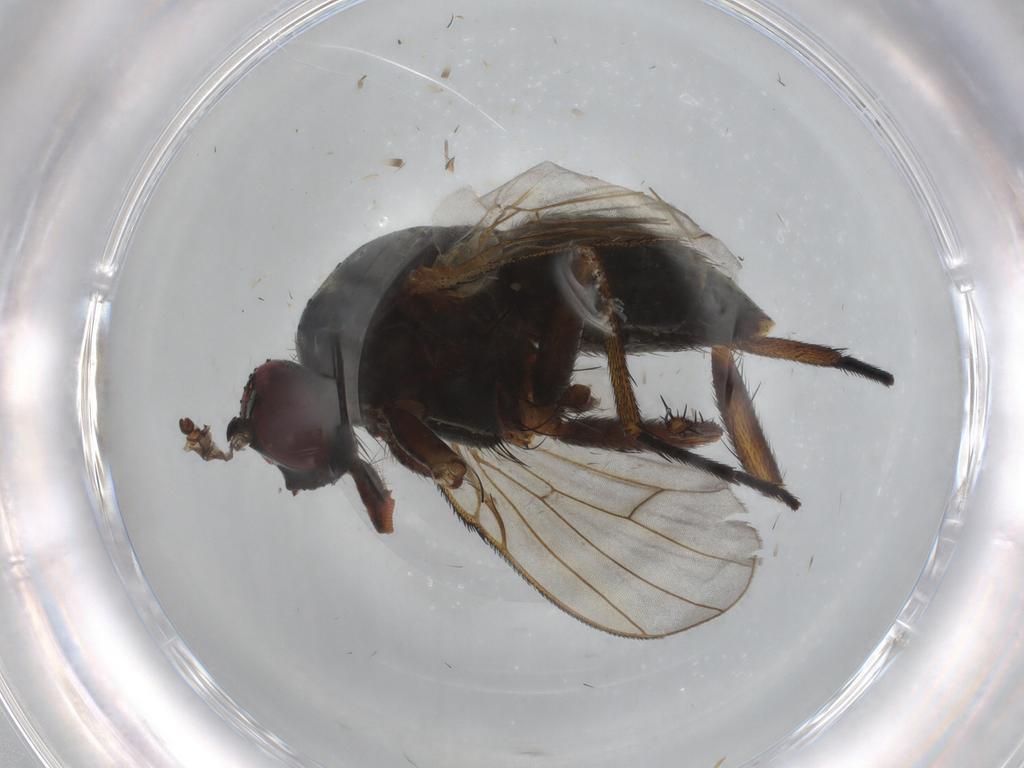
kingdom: Animalia
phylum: Arthropoda
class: Insecta
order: Diptera
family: Muscidae
